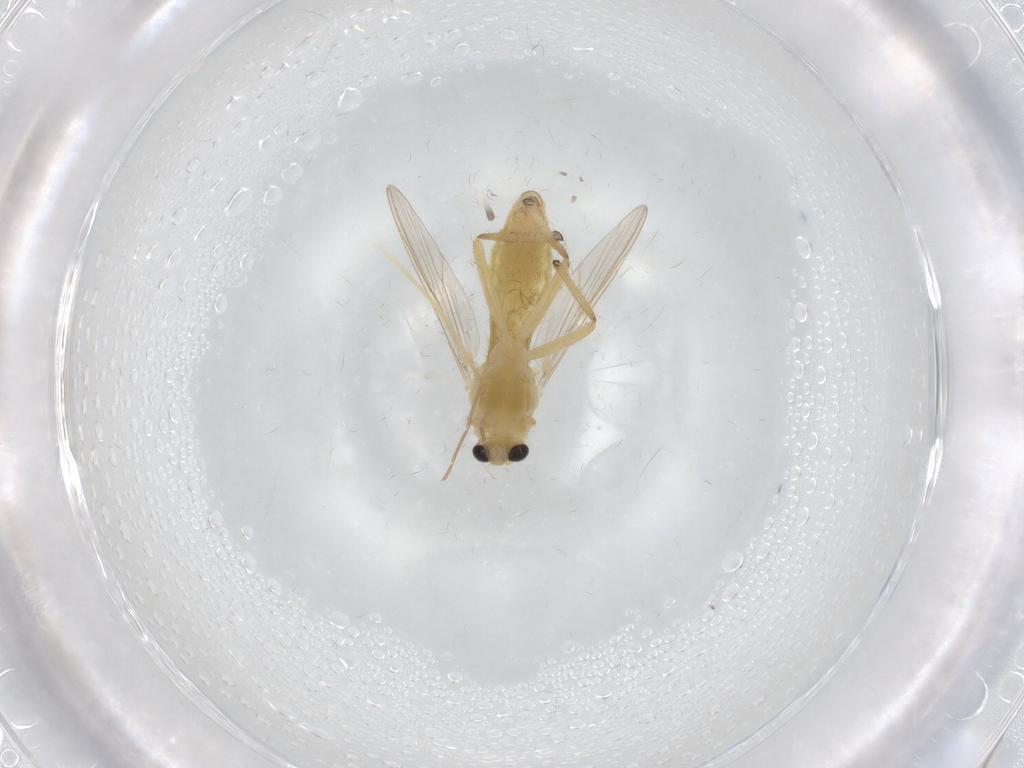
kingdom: Animalia
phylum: Arthropoda
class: Insecta
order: Diptera
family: Chironomidae
